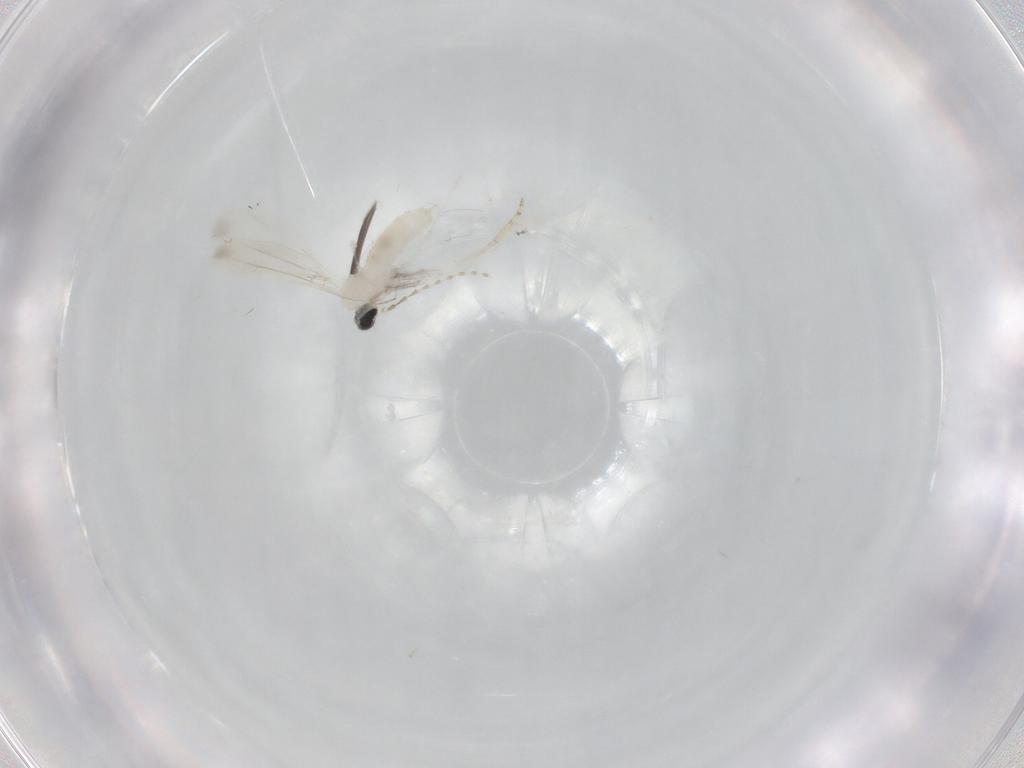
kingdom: Animalia
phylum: Arthropoda
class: Insecta
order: Diptera
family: Cecidomyiidae
